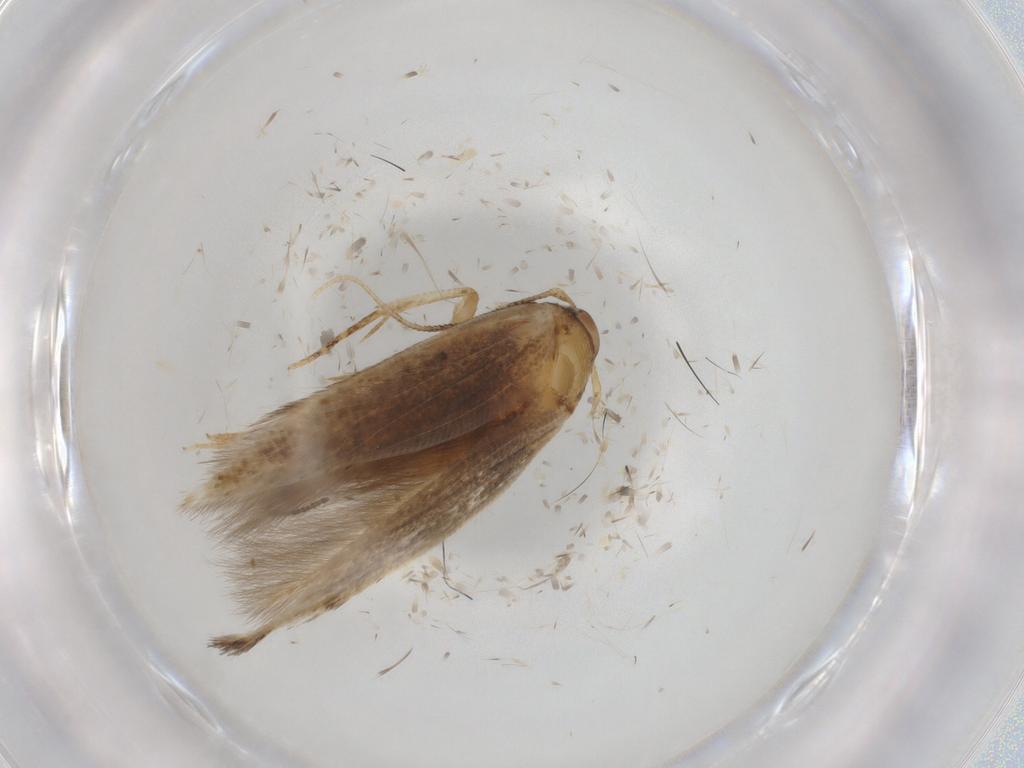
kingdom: Animalia
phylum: Arthropoda
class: Insecta
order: Lepidoptera
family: Cosmopterigidae
